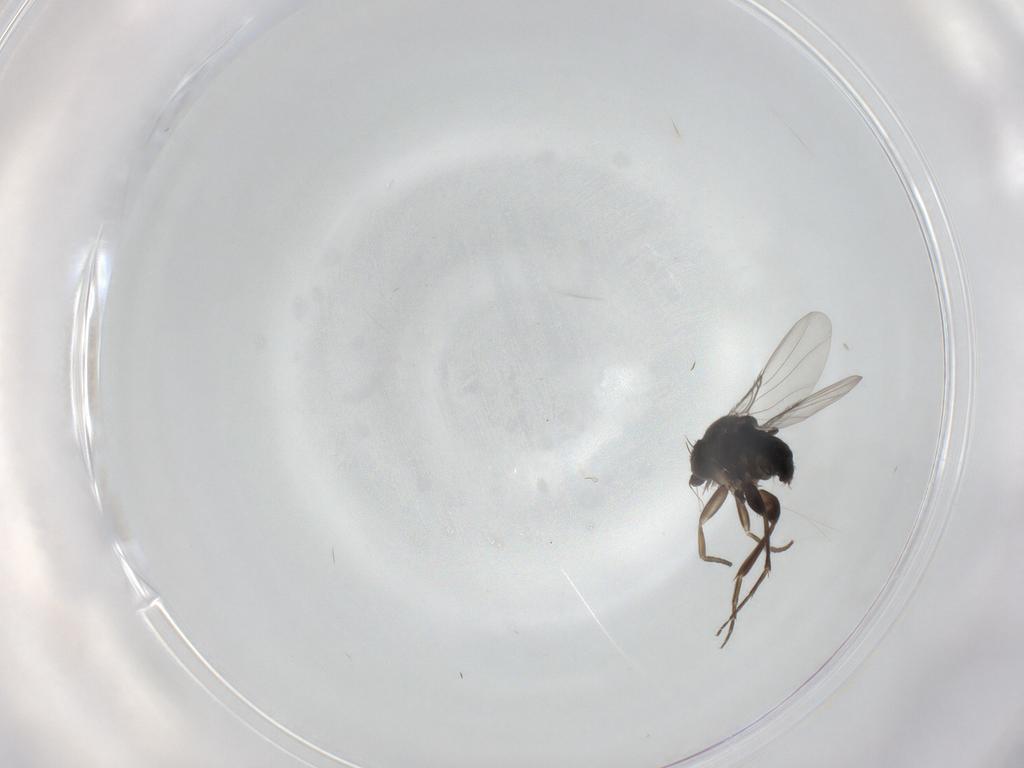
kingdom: Animalia
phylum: Arthropoda
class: Insecta
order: Diptera
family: Phoridae
